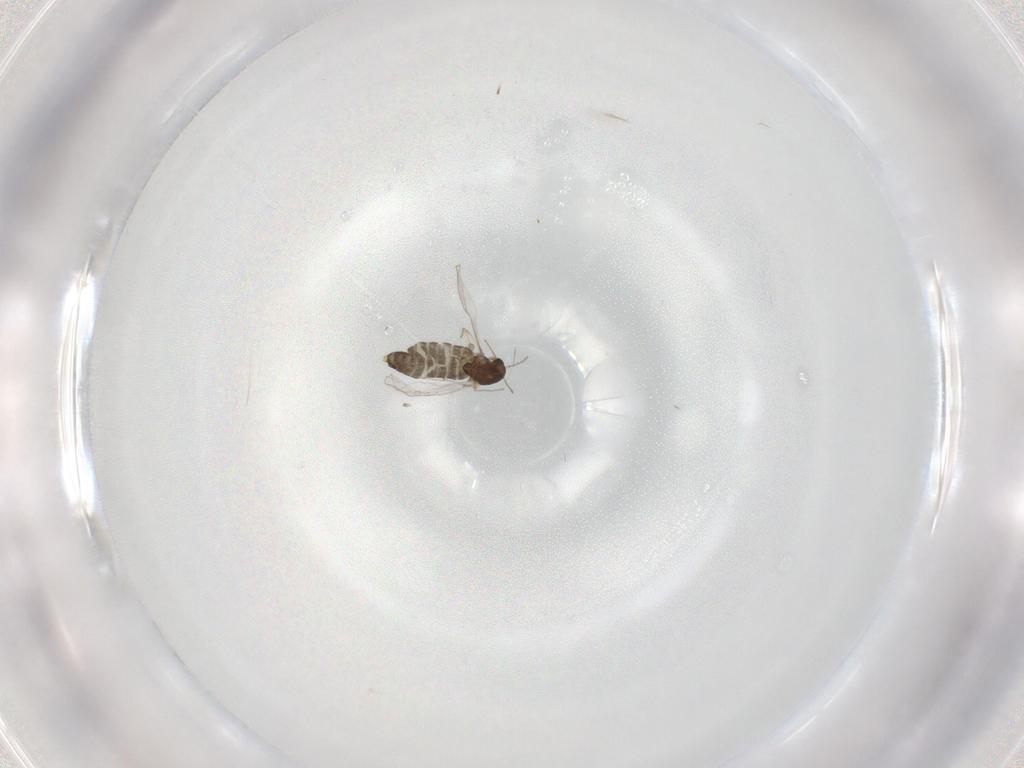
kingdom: Animalia
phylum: Arthropoda
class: Insecta
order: Diptera
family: Chironomidae
